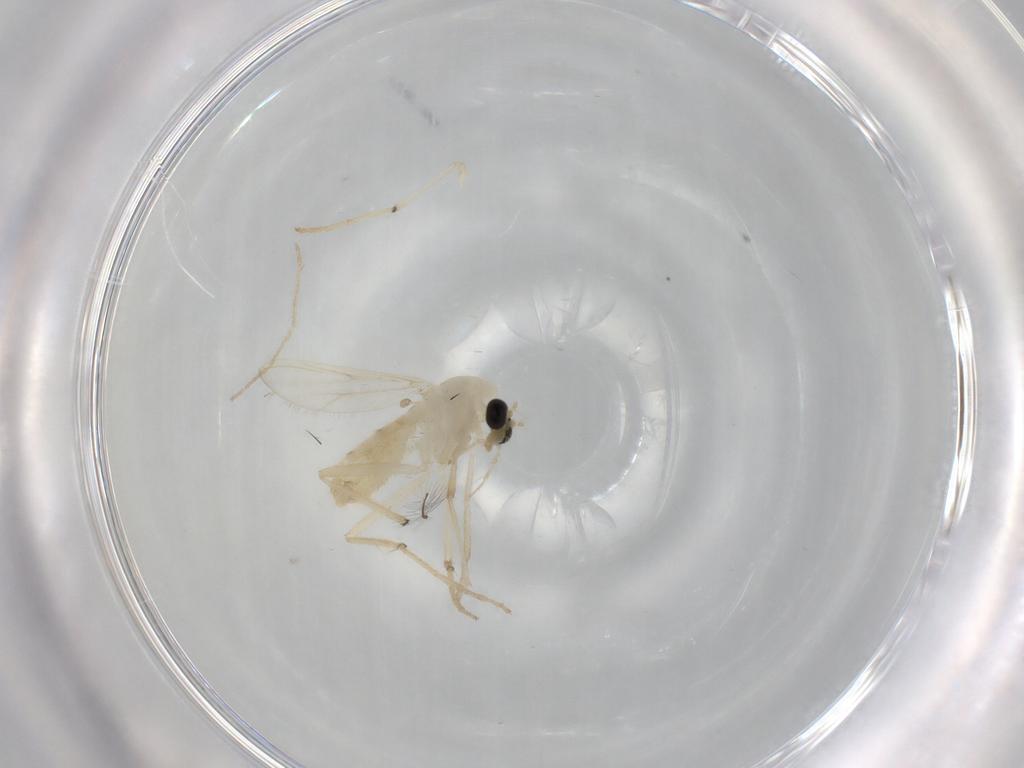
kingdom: Animalia
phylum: Arthropoda
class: Insecta
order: Diptera
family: Chironomidae
